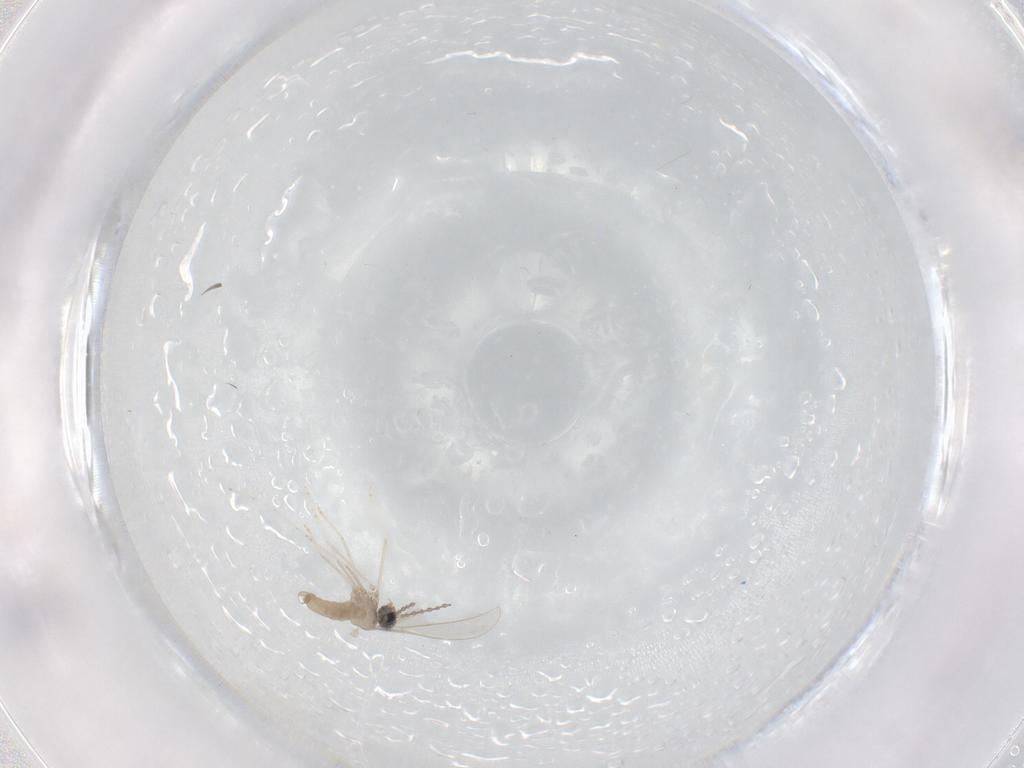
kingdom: Animalia
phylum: Arthropoda
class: Insecta
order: Diptera
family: Cecidomyiidae
